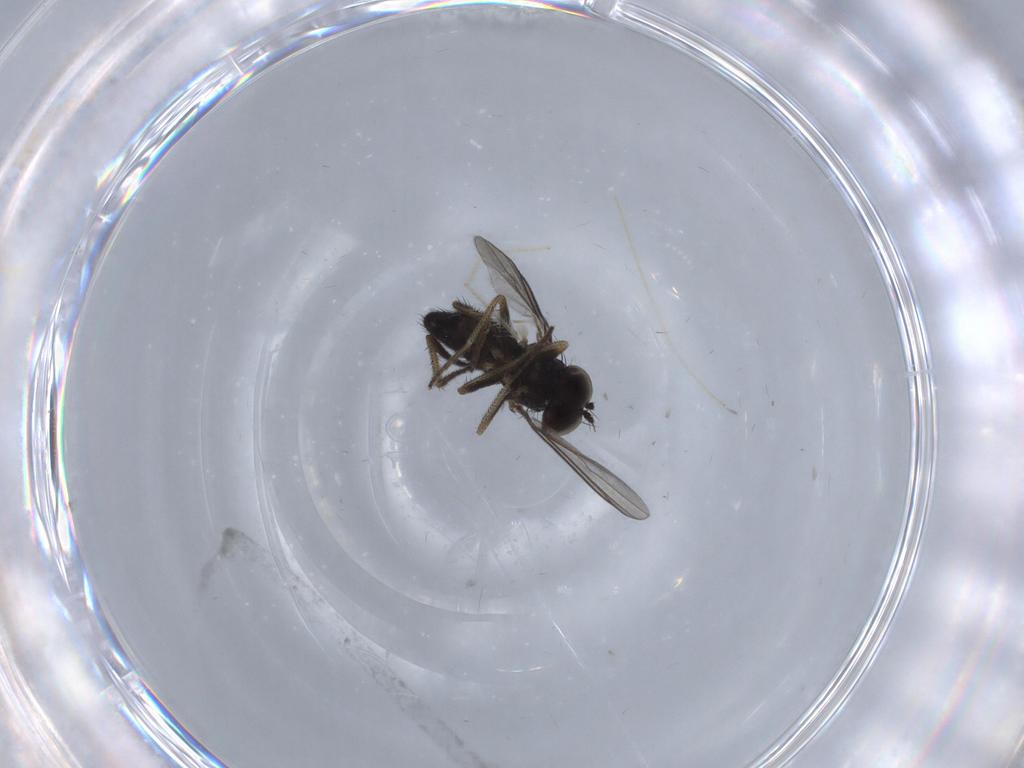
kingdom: Animalia
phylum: Arthropoda
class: Insecta
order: Diptera
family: Chironomidae
